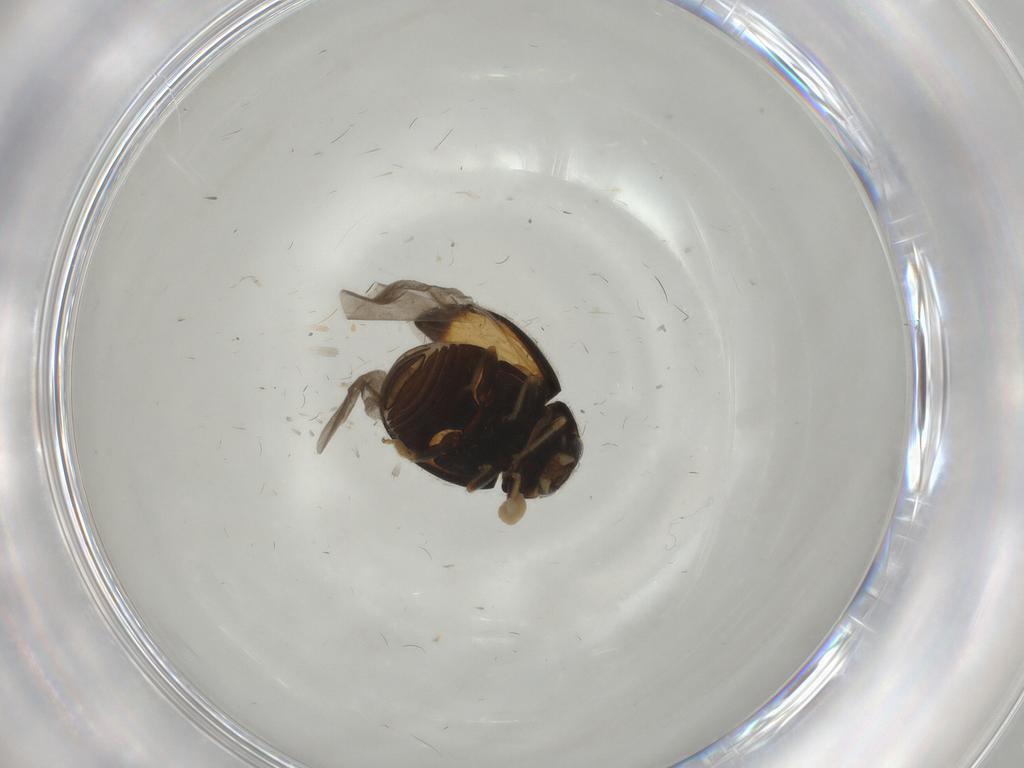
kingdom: Animalia
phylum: Arthropoda
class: Insecta
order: Coleoptera
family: Coccinellidae
